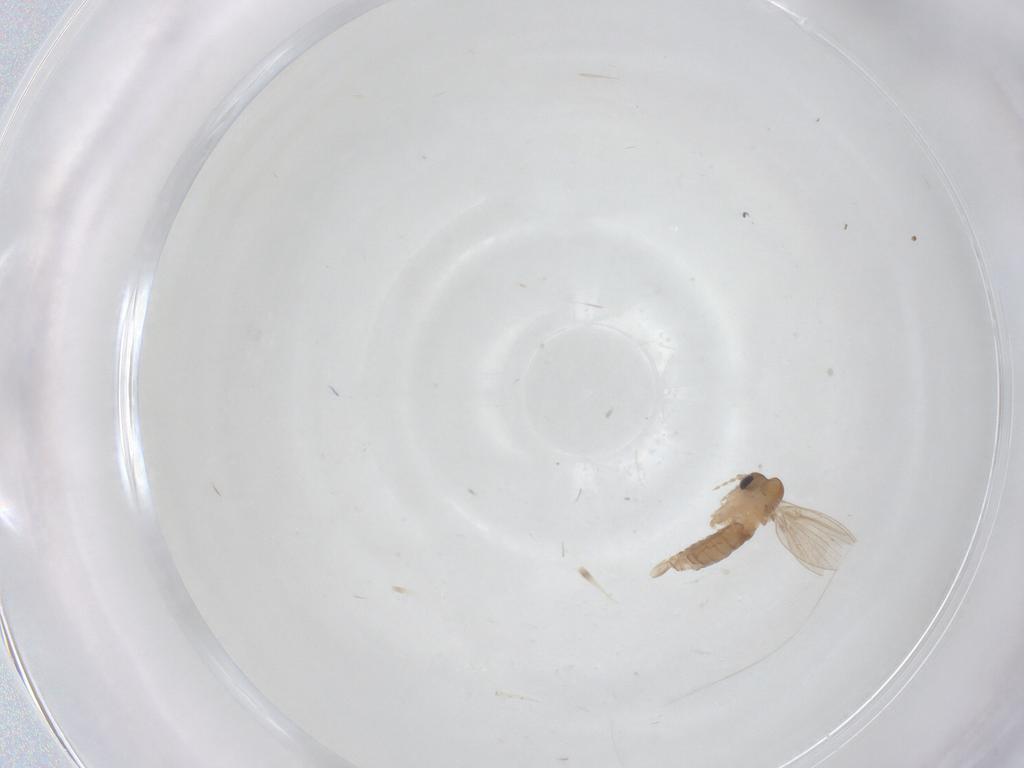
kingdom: Animalia
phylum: Arthropoda
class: Insecta
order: Diptera
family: Psychodidae
